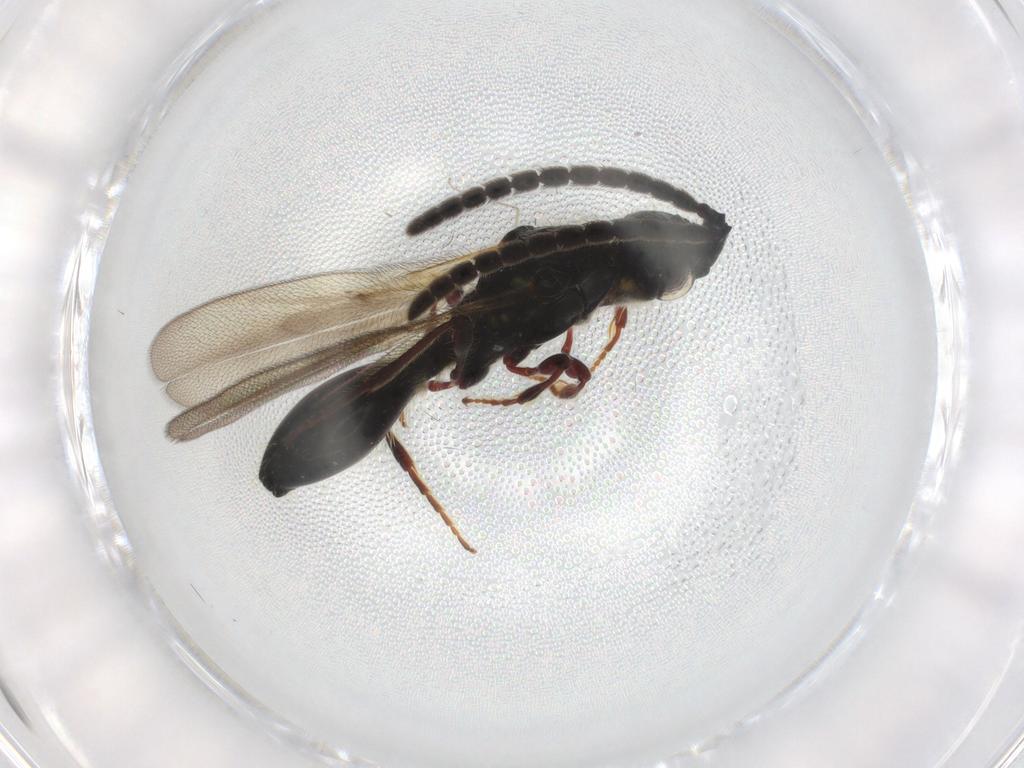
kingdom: Animalia
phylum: Arthropoda
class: Insecta
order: Hymenoptera
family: Diapriidae
